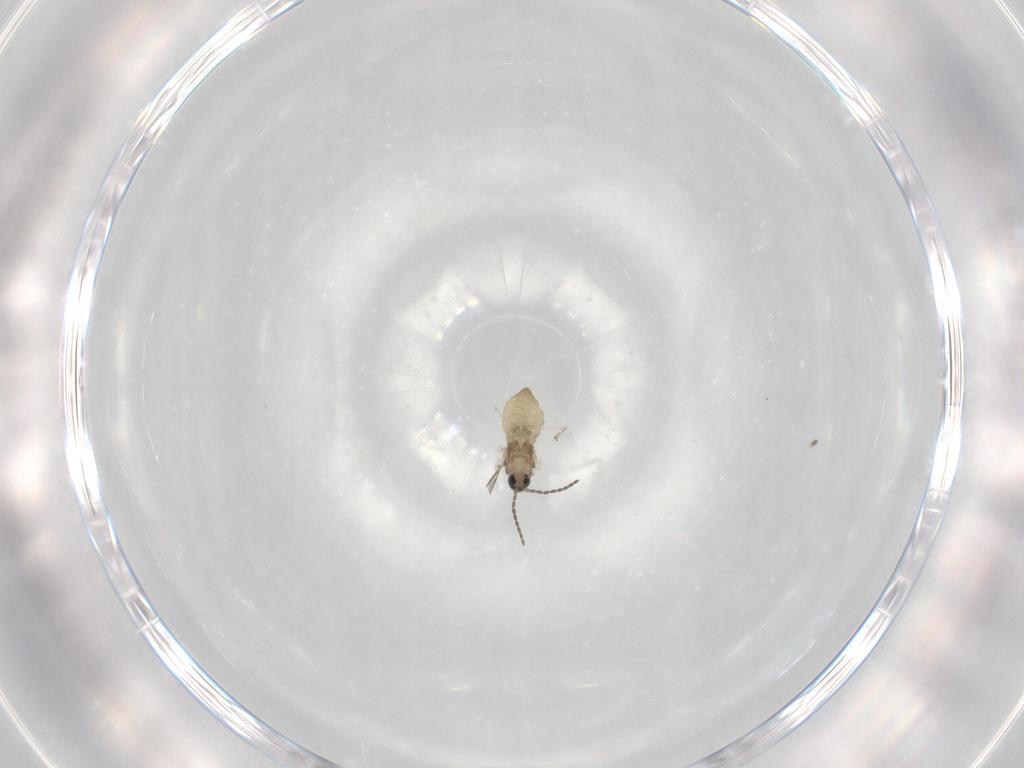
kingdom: Animalia
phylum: Arthropoda
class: Insecta
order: Diptera
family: Cecidomyiidae
